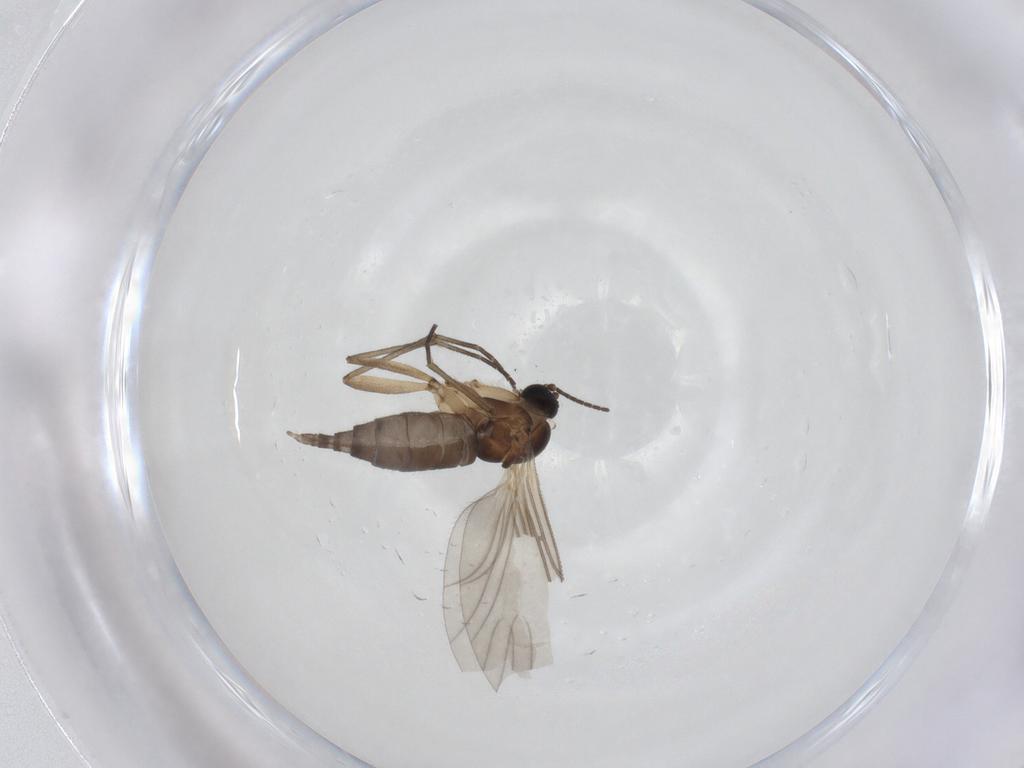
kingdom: Animalia
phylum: Arthropoda
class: Insecta
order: Diptera
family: Sciaridae
